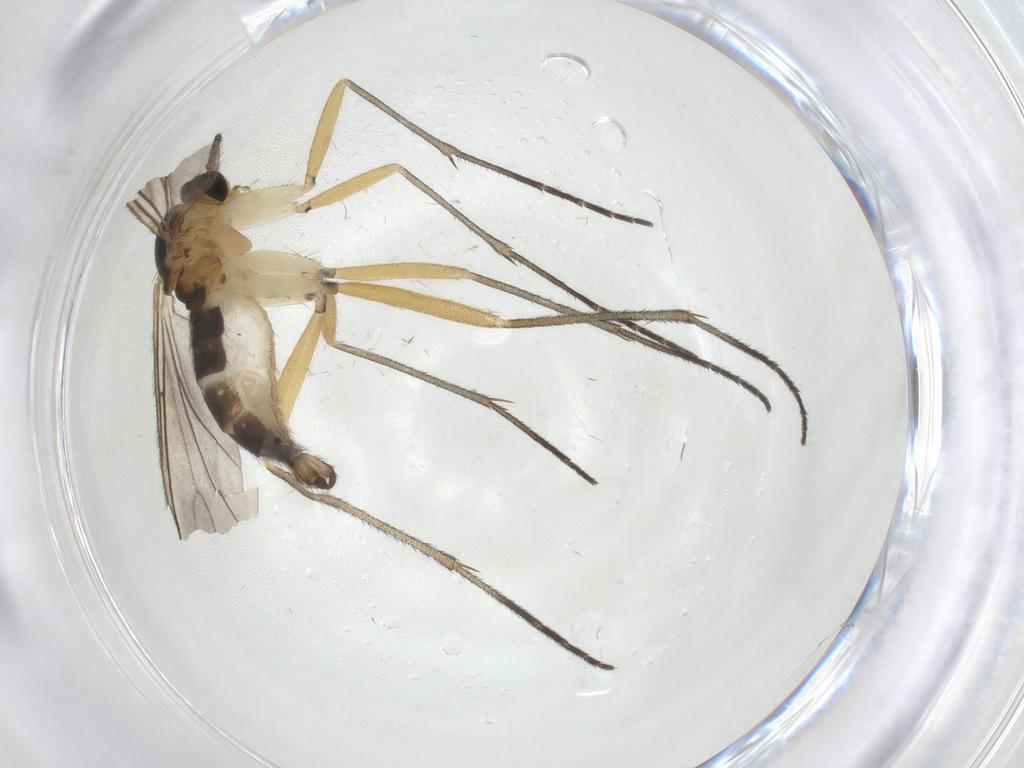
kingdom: Animalia
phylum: Arthropoda
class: Insecta
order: Diptera
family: Sciaridae
